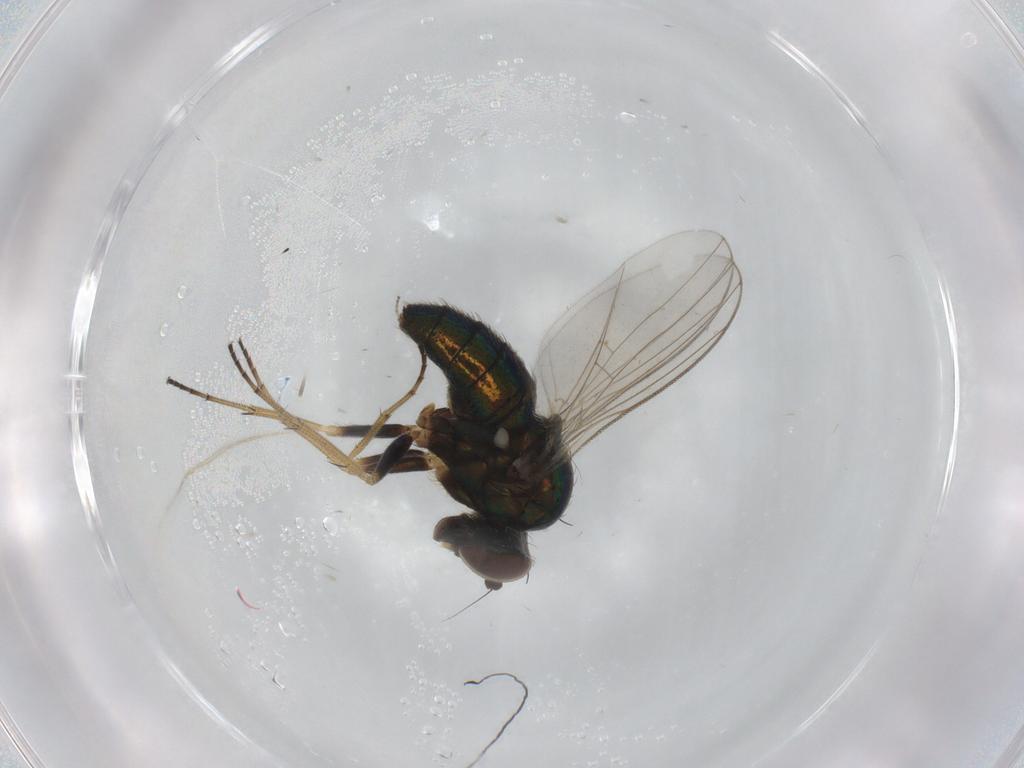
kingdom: Animalia
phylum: Arthropoda
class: Insecta
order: Diptera
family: Dolichopodidae
